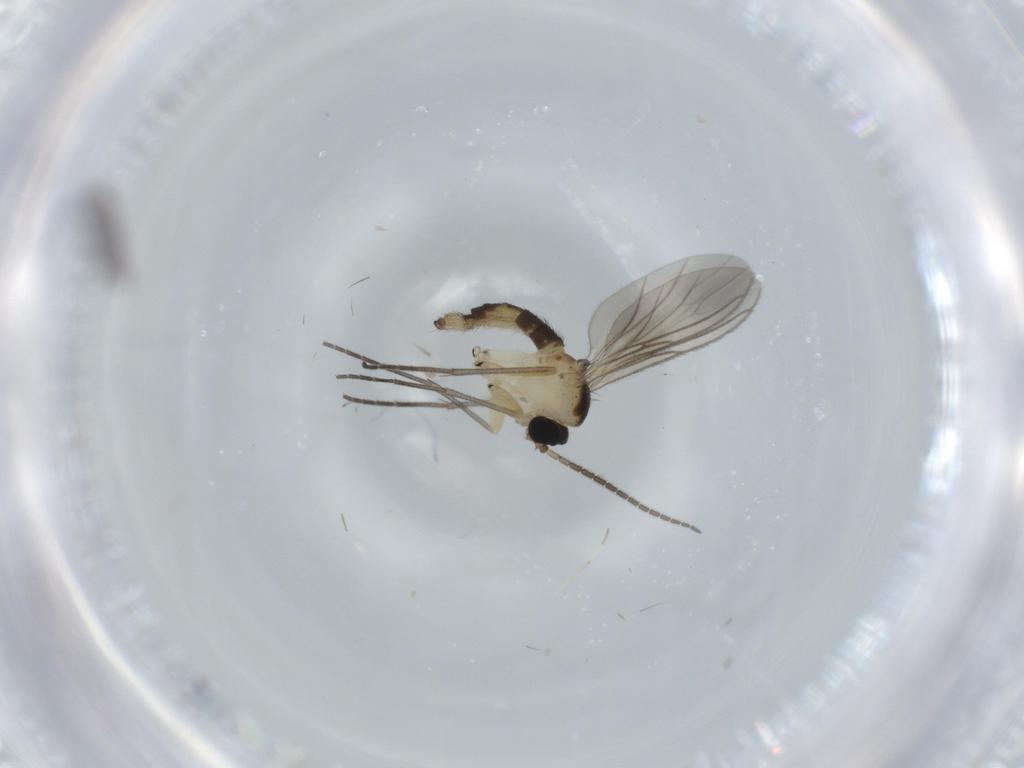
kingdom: Animalia
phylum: Arthropoda
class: Insecta
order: Diptera
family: Sciaridae
